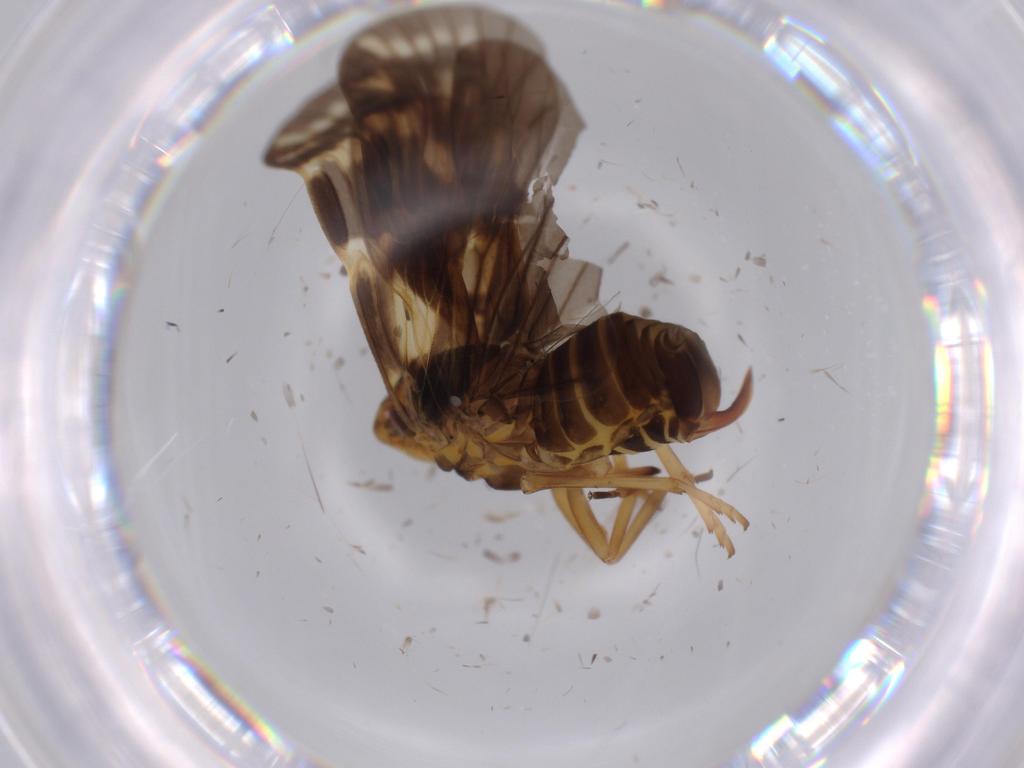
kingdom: Animalia
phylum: Arthropoda
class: Insecta
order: Hemiptera
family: Cixiidae
